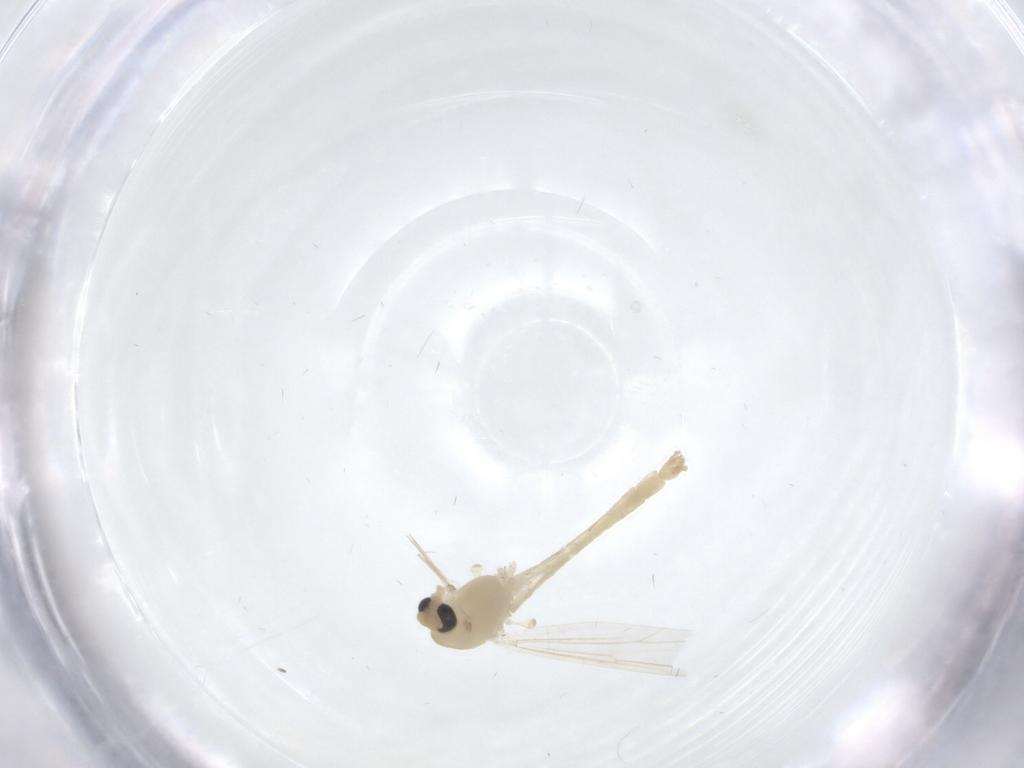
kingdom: Animalia
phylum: Arthropoda
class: Insecta
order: Diptera
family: Chironomidae
